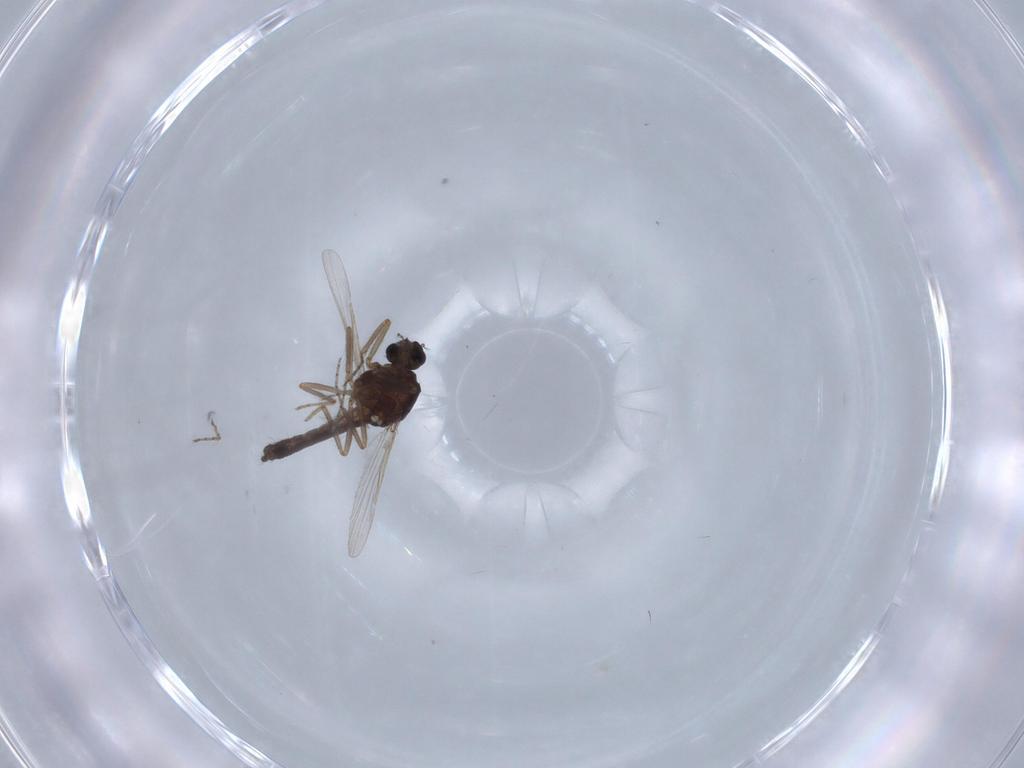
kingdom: Animalia
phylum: Arthropoda
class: Insecta
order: Diptera
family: Ceratopogonidae
